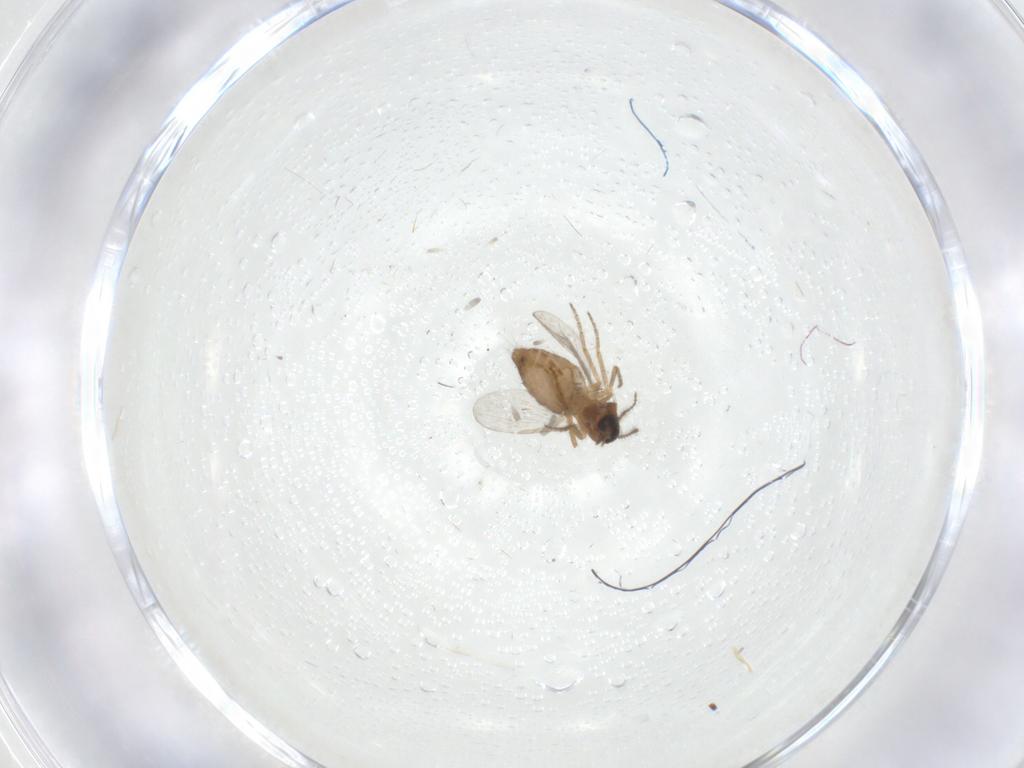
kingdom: Animalia
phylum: Arthropoda
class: Insecta
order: Diptera
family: Ceratopogonidae
